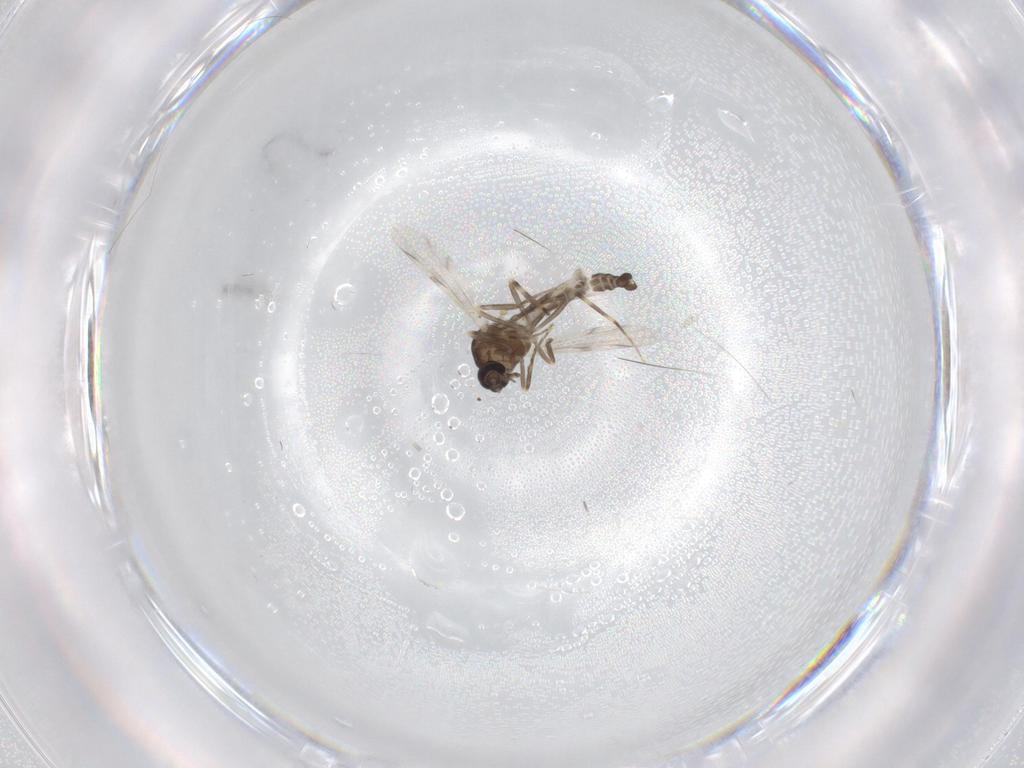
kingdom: Animalia
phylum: Arthropoda
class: Insecta
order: Diptera
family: Ceratopogonidae
